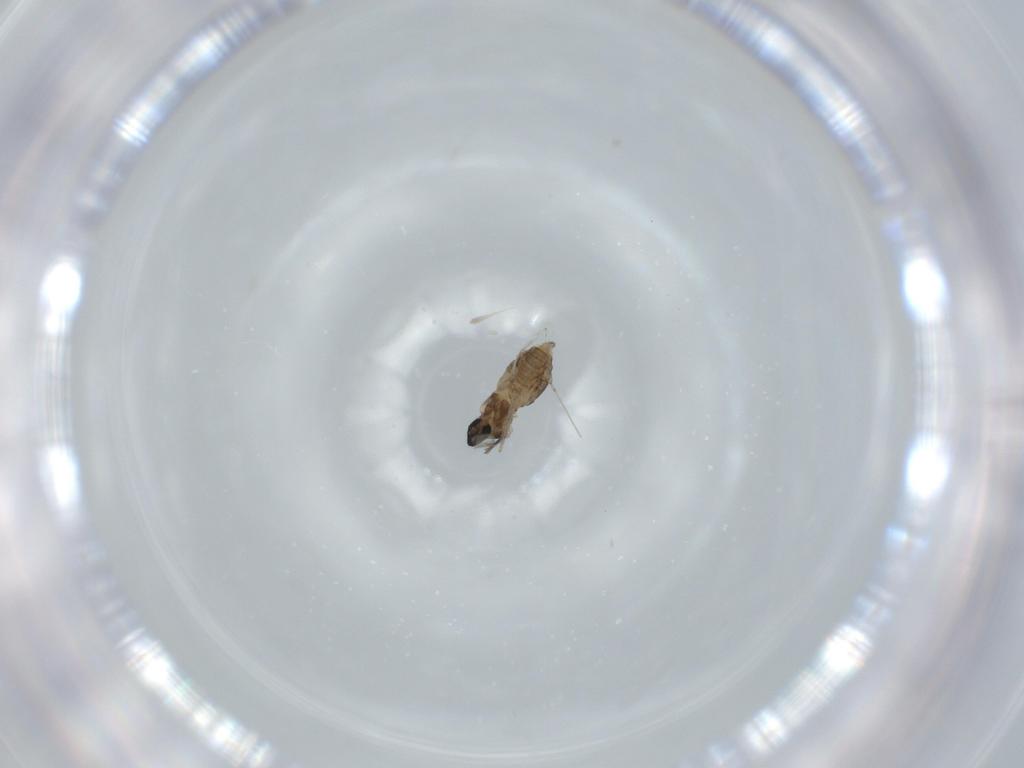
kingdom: Animalia
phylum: Arthropoda
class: Insecta
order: Diptera
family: Cecidomyiidae
